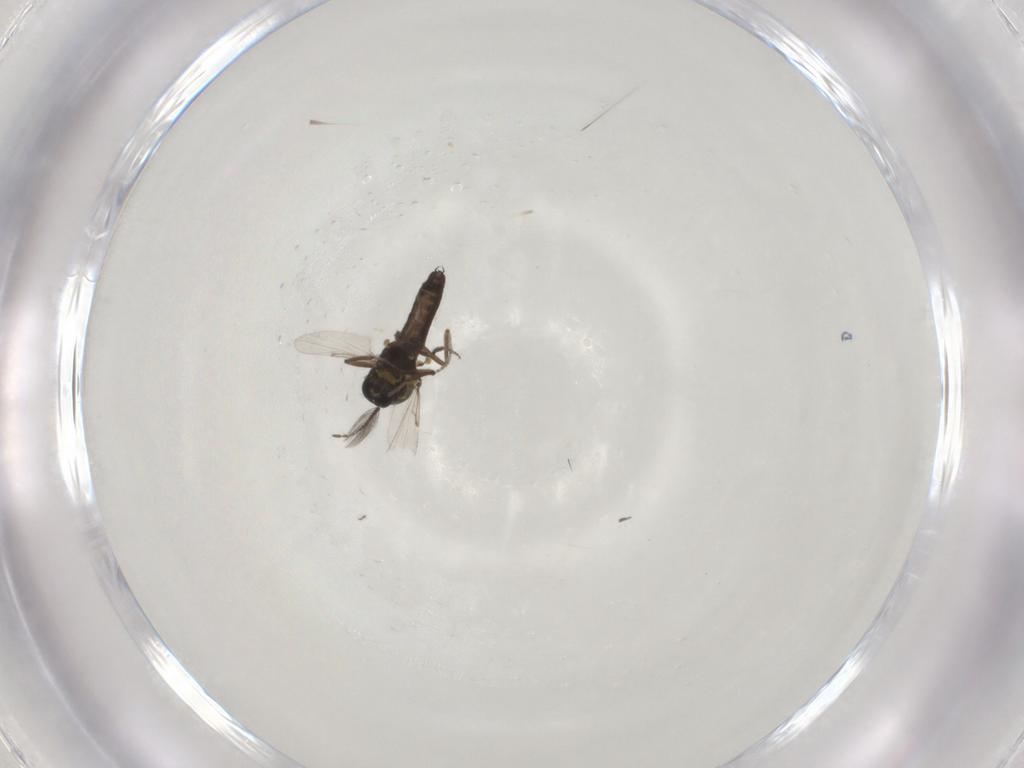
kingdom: Animalia
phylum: Arthropoda
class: Insecta
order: Diptera
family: Ceratopogonidae
